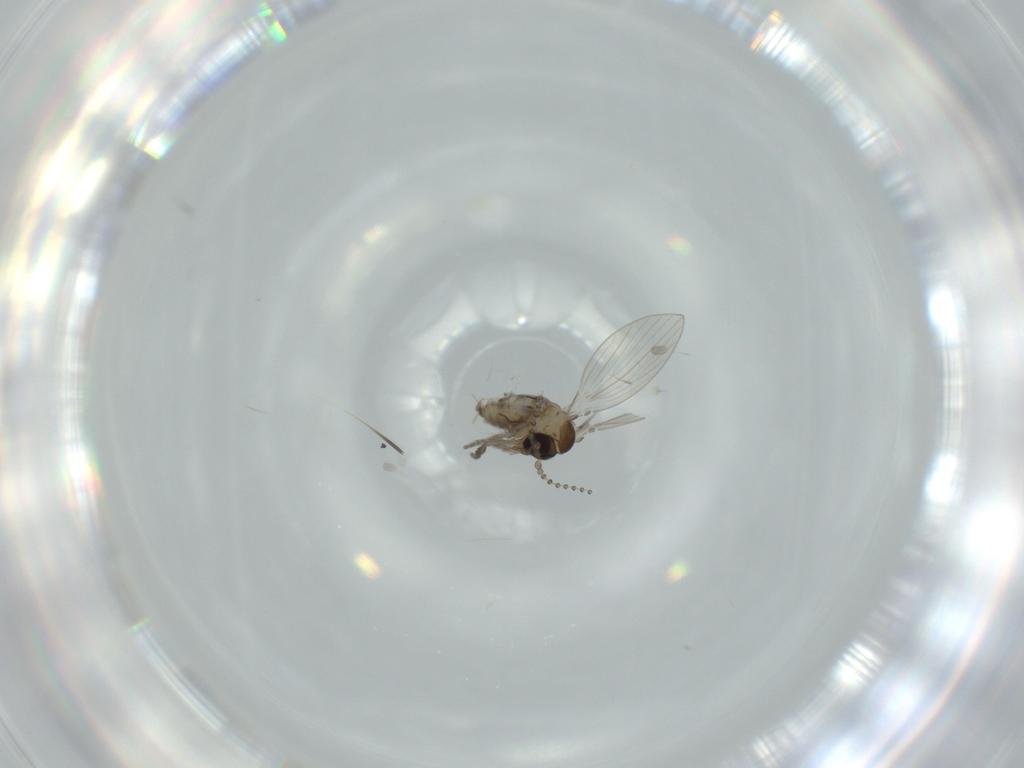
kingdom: Animalia
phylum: Arthropoda
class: Insecta
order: Diptera
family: Psychodidae
